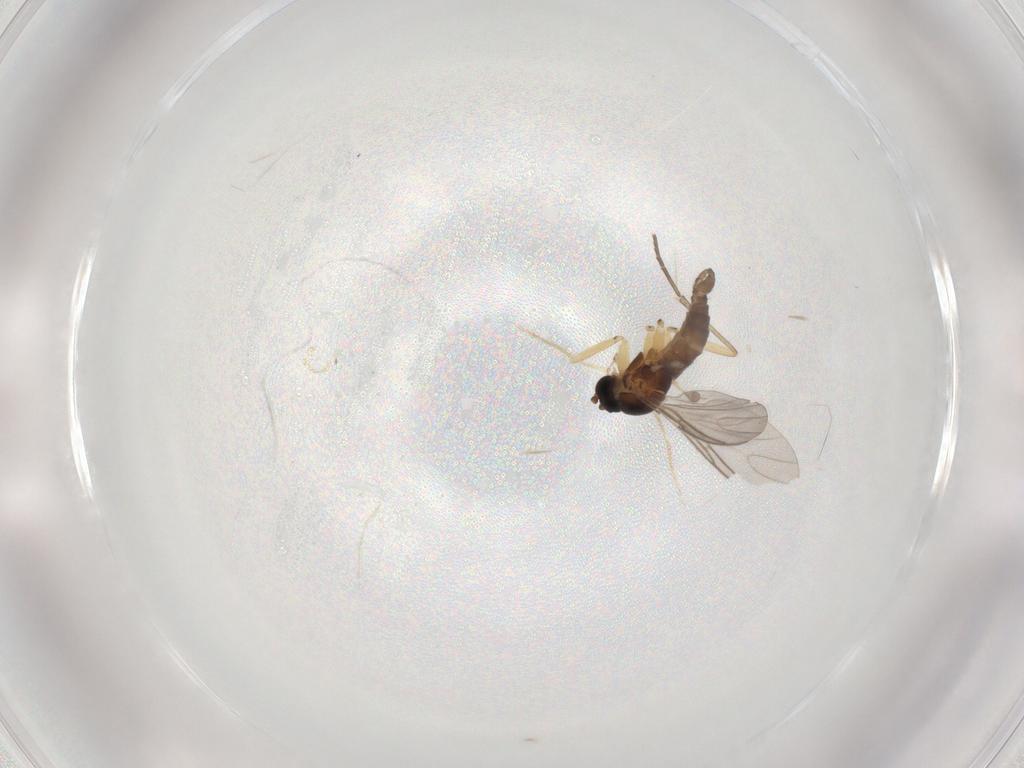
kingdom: Animalia
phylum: Arthropoda
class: Insecta
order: Diptera
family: Sciaridae
